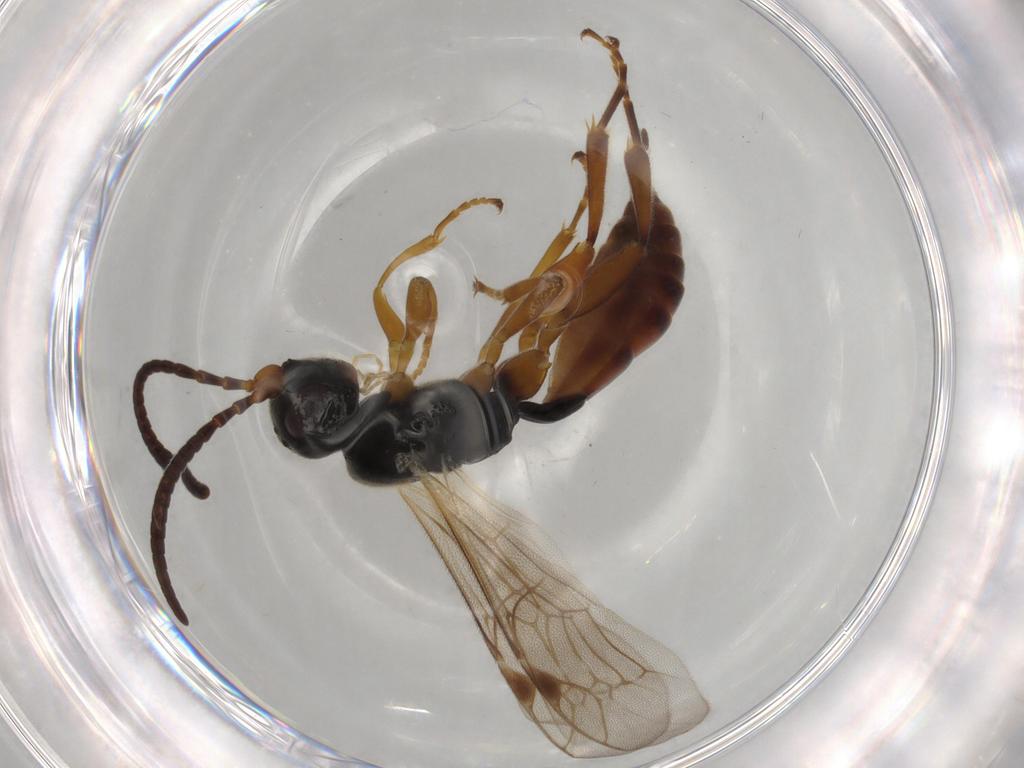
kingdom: Animalia
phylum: Arthropoda
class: Insecta
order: Hymenoptera
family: Ichneumonidae
